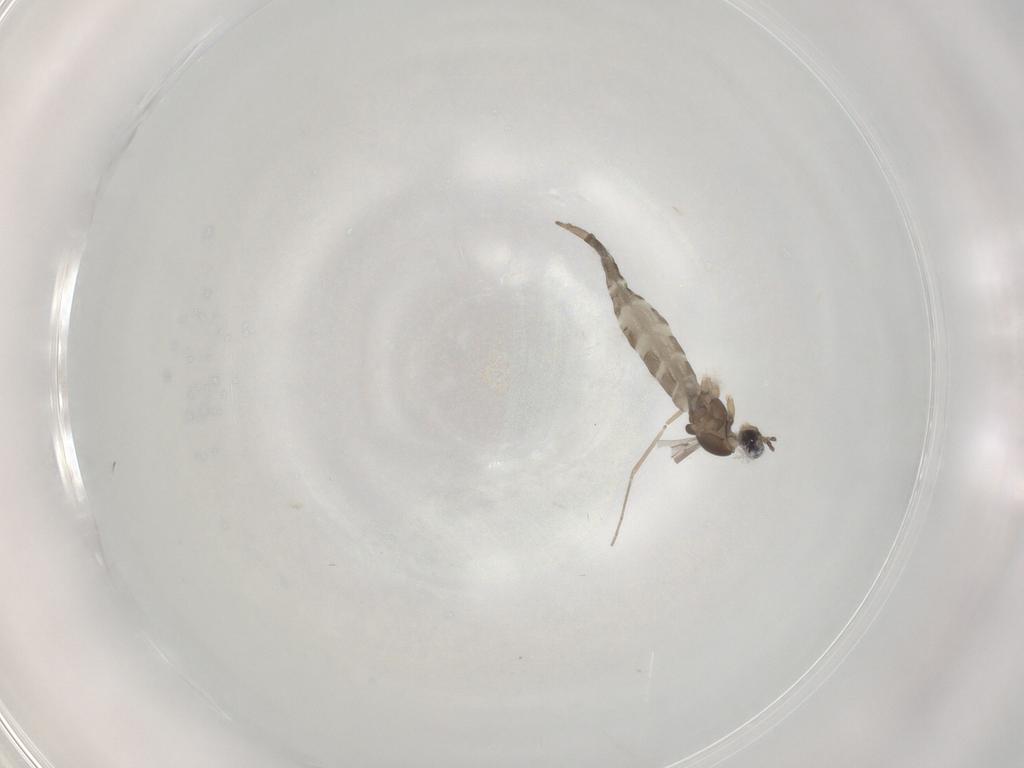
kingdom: Animalia
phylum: Arthropoda
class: Insecta
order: Diptera
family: Cecidomyiidae
